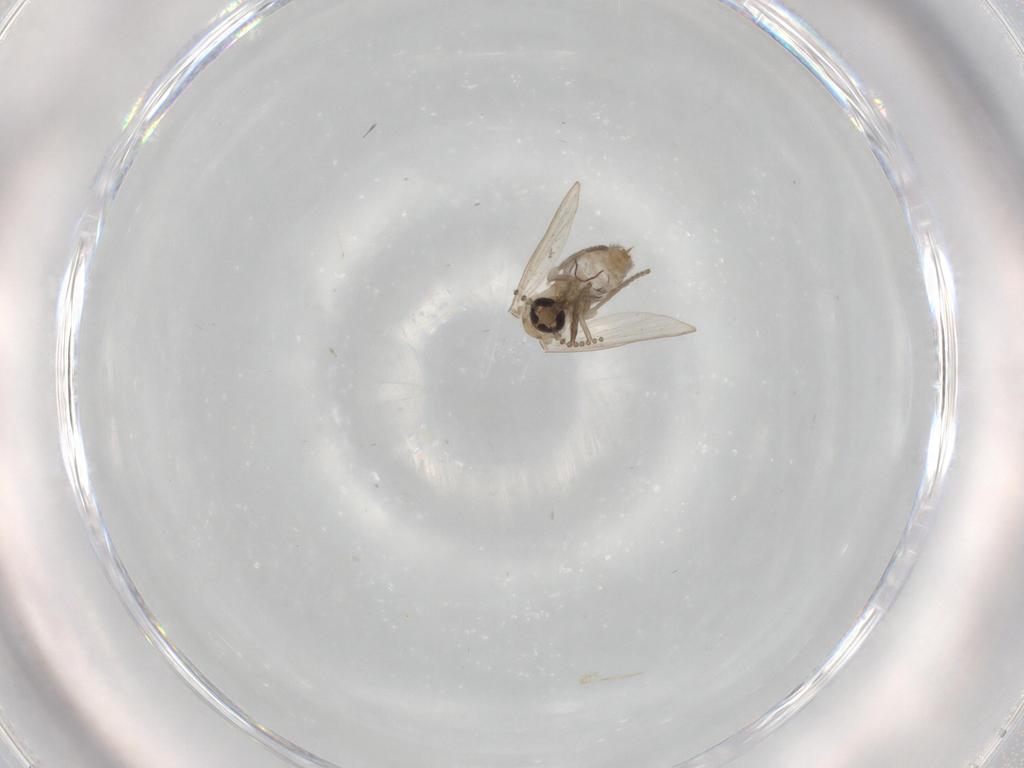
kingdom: Animalia
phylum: Arthropoda
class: Insecta
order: Diptera
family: Psychodidae
